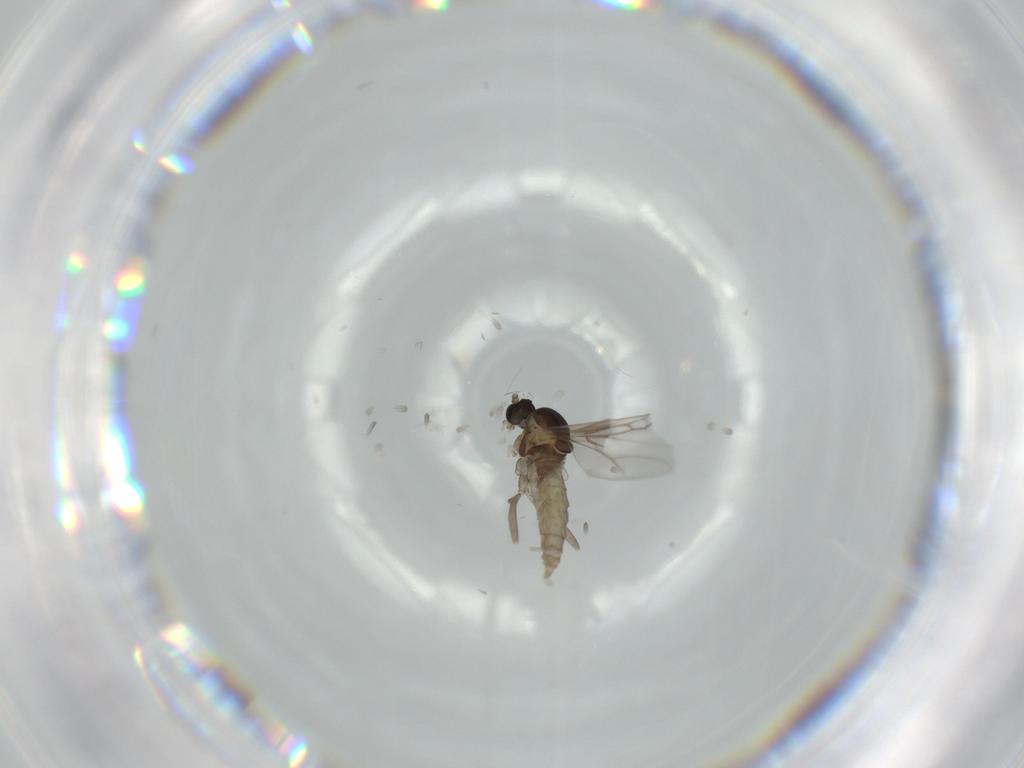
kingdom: Animalia
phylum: Arthropoda
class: Insecta
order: Diptera
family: Cecidomyiidae
